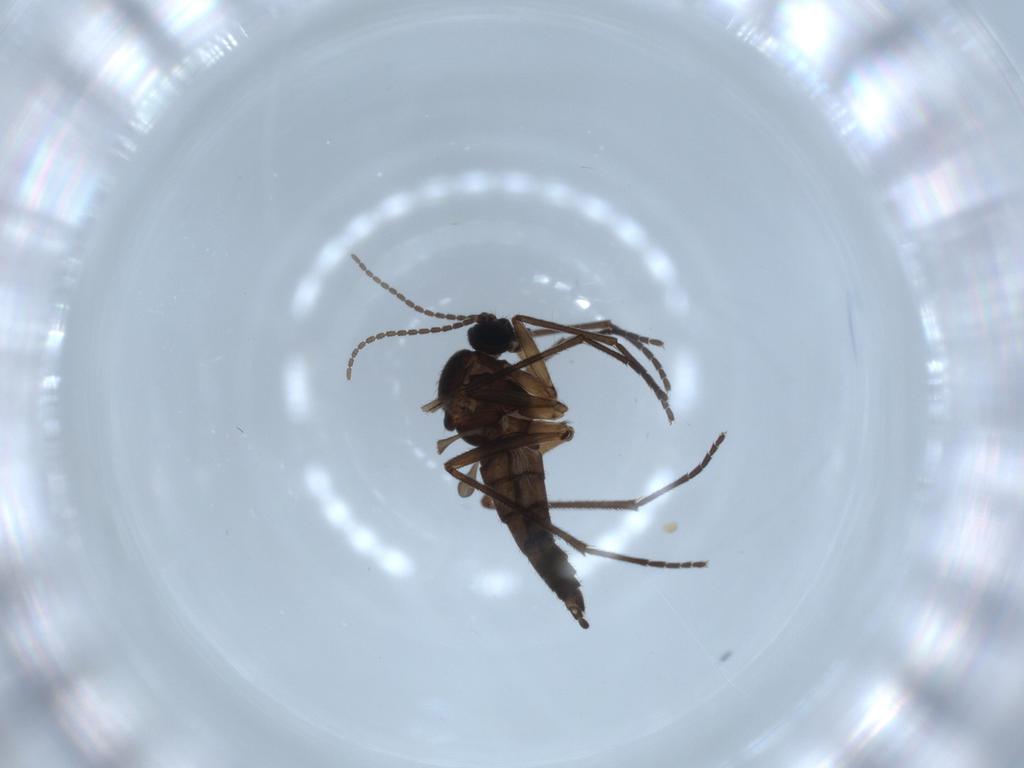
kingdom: Animalia
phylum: Arthropoda
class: Insecta
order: Diptera
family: Sciaridae
